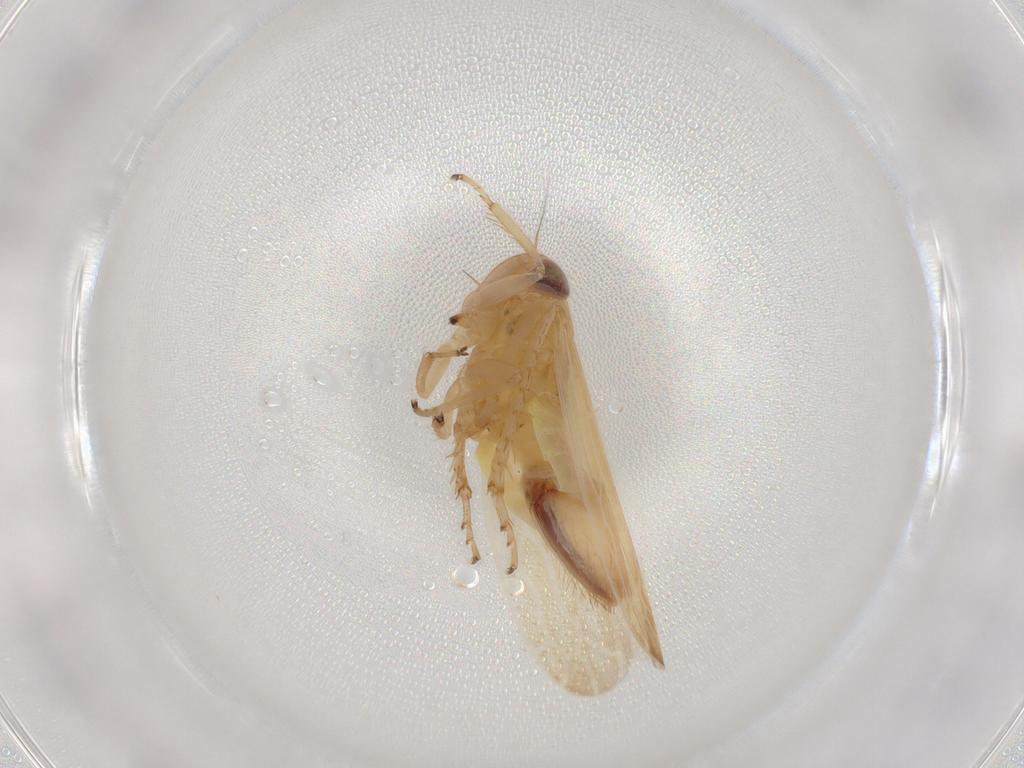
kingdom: Animalia
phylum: Arthropoda
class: Insecta
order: Hemiptera
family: Cicadellidae
